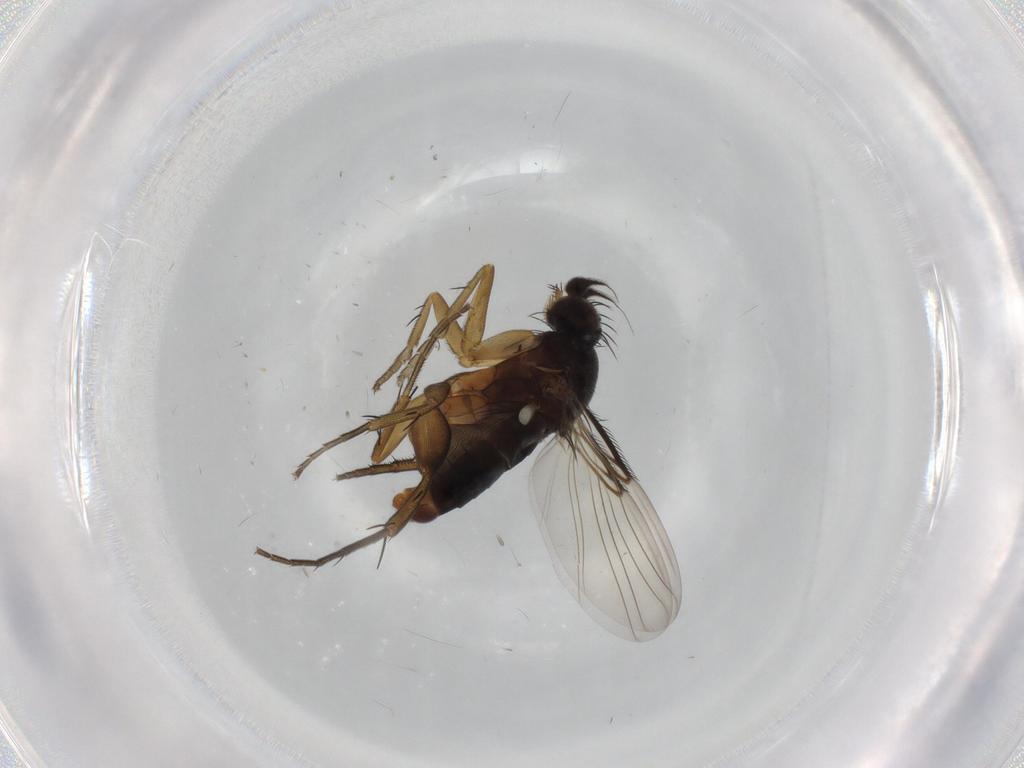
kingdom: Animalia
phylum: Arthropoda
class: Insecta
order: Diptera
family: Phoridae
